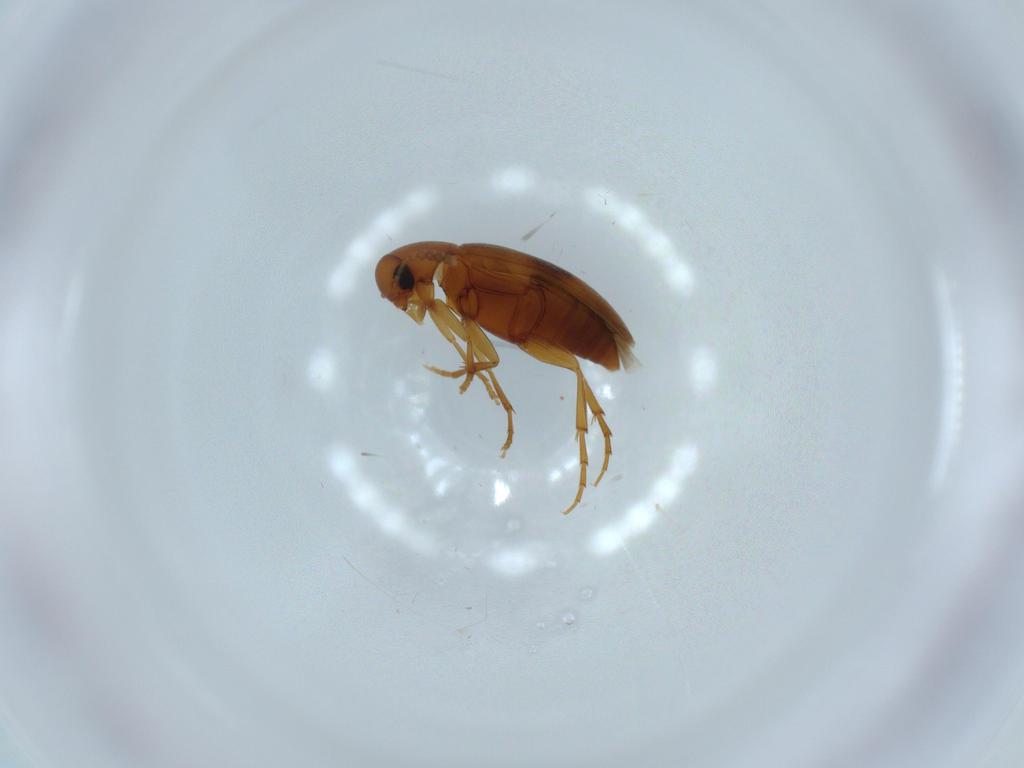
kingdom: Animalia
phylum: Arthropoda
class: Insecta
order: Coleoptera
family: Scraptiidae
